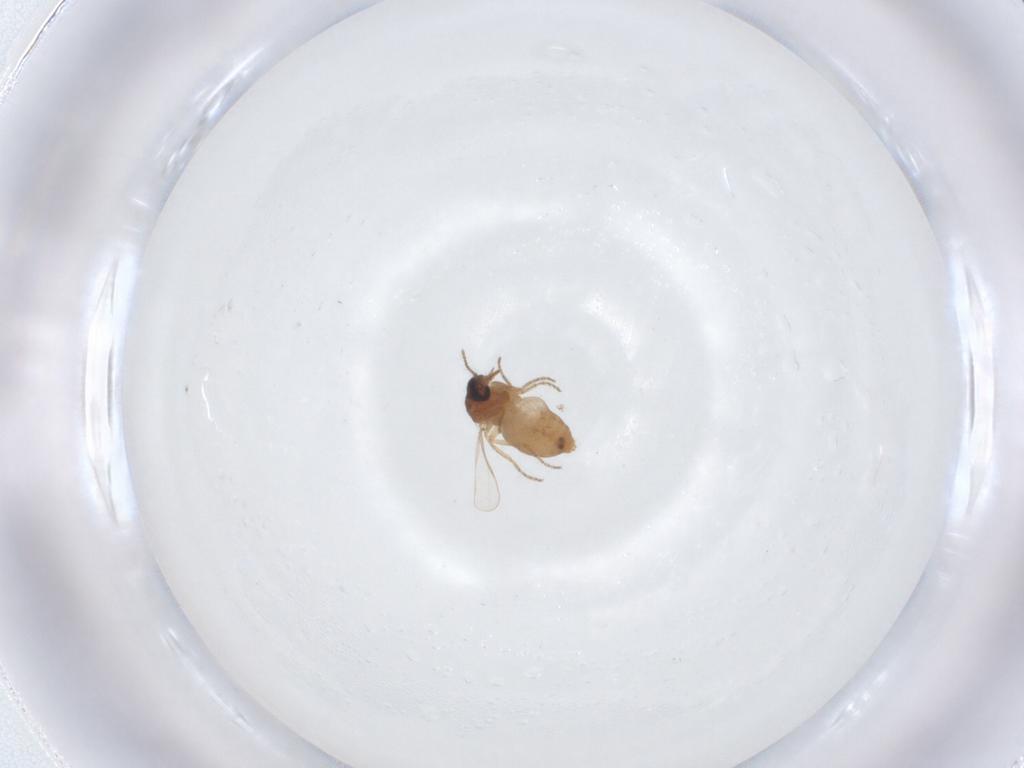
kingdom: Animalia
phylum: Arthropoda
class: Insecta
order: Diptera
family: Ceratopogonidae
